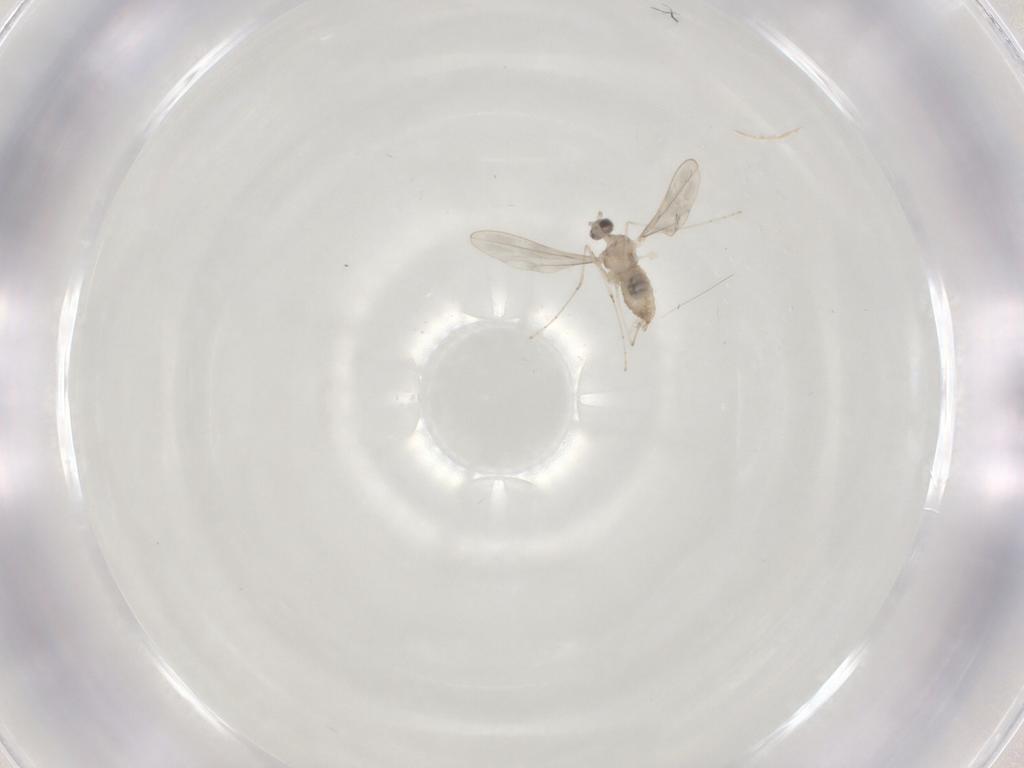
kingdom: Animalia
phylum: Arthropoda
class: Insecta
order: Diptera
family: Cecidomyiidae
